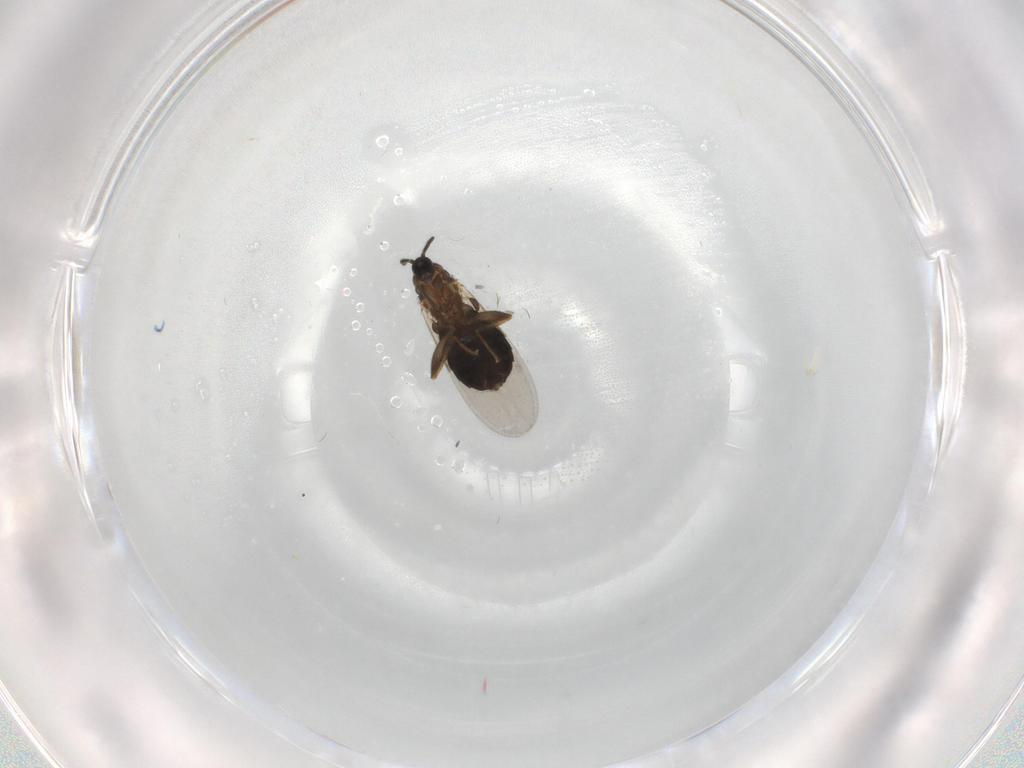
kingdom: Animalia
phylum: Arthropoda
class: Insecta
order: Diptera
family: Scatopsidae
